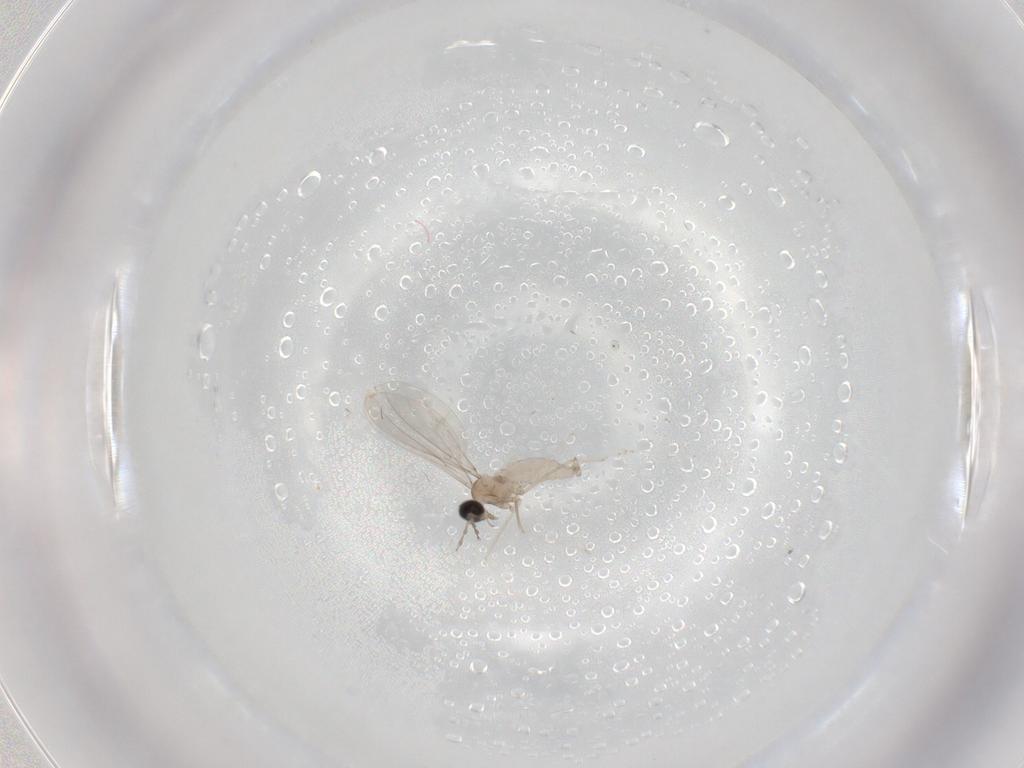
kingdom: Animalia
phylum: Arthropoda
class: Insecta
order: Diptera
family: Cecidomyiidae
